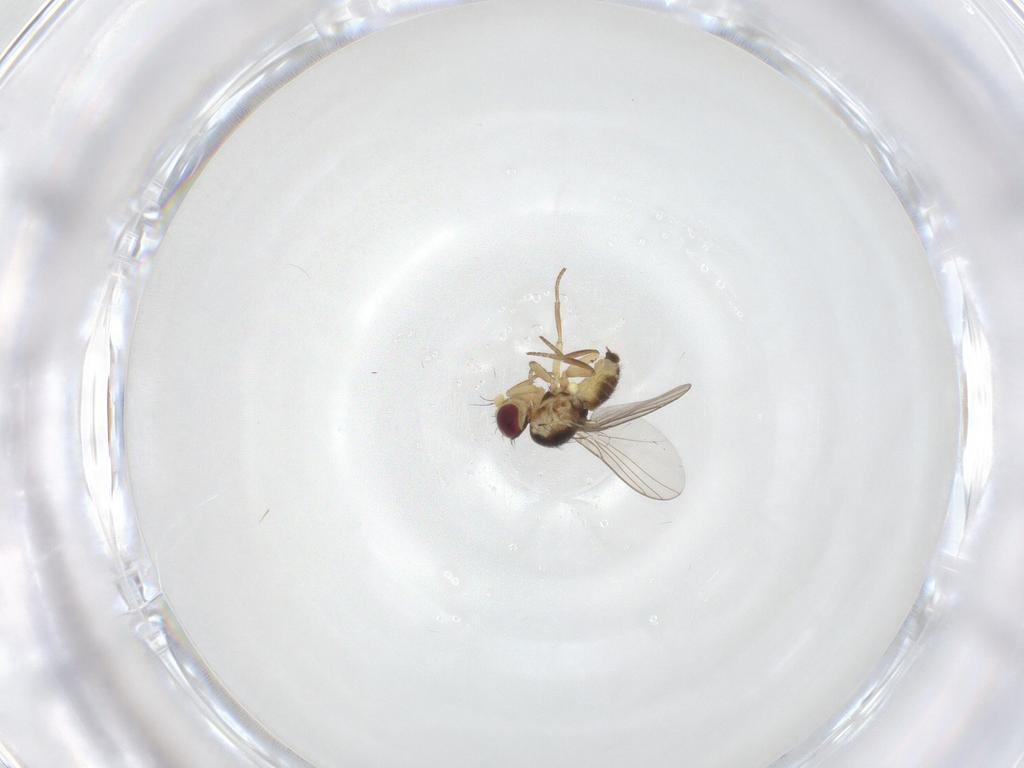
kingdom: Animalia
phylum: Arthropoda
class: Insecta
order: Diptera
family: Agromyzidae
